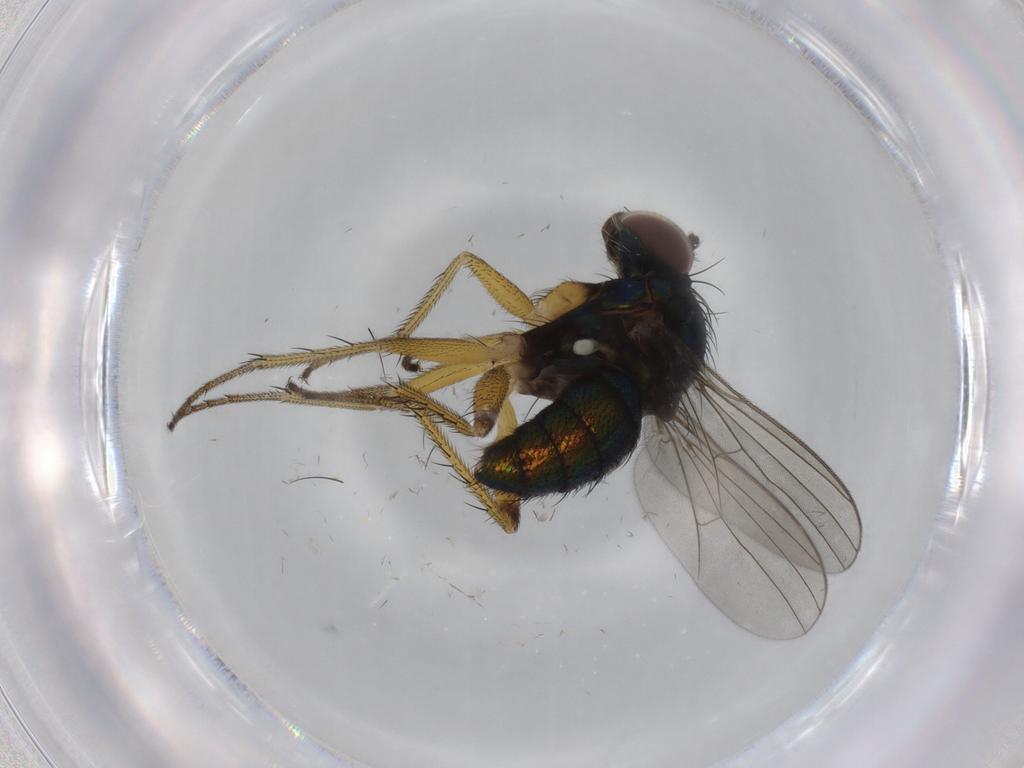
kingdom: Animalia
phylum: Arthropoda
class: Insecta
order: Diptera
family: Dolichopodidae
